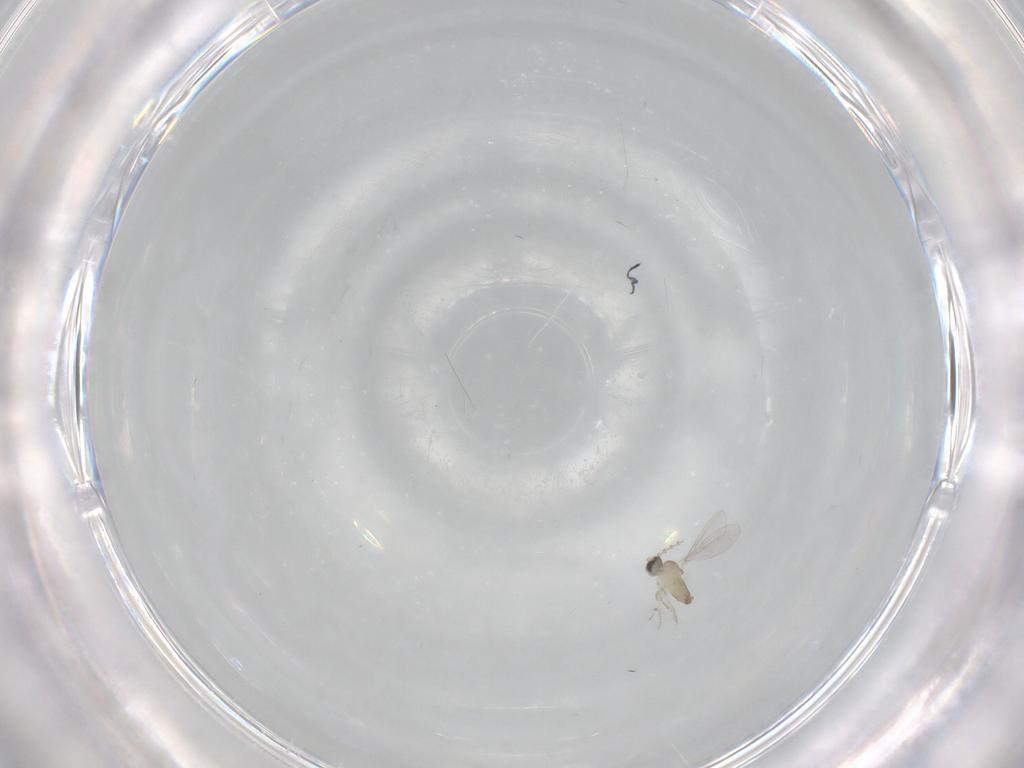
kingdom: Animalia
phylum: Arthropoda
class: Insecta
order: Diptera
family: Cecidomyiidae
